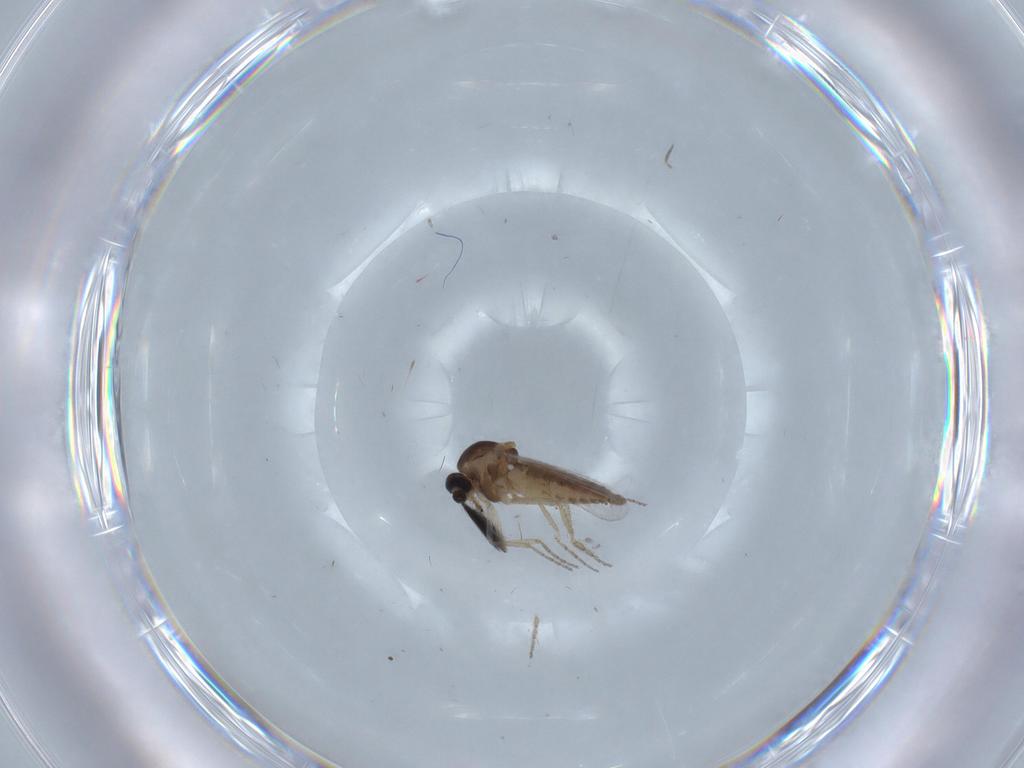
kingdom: Animalia
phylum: Arthropoda
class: Insecta
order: Diptera
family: Ceratopogonidae
